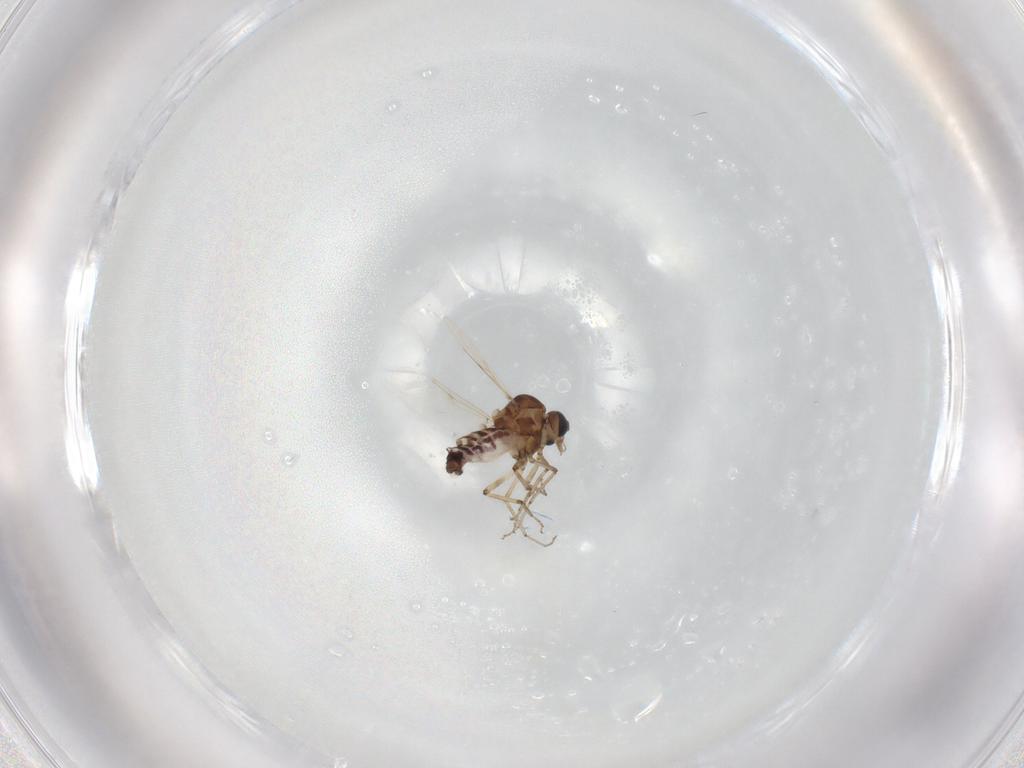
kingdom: Animalia
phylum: Arthropoda
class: Insecta
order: Diptera
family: Ceratopogonidae
